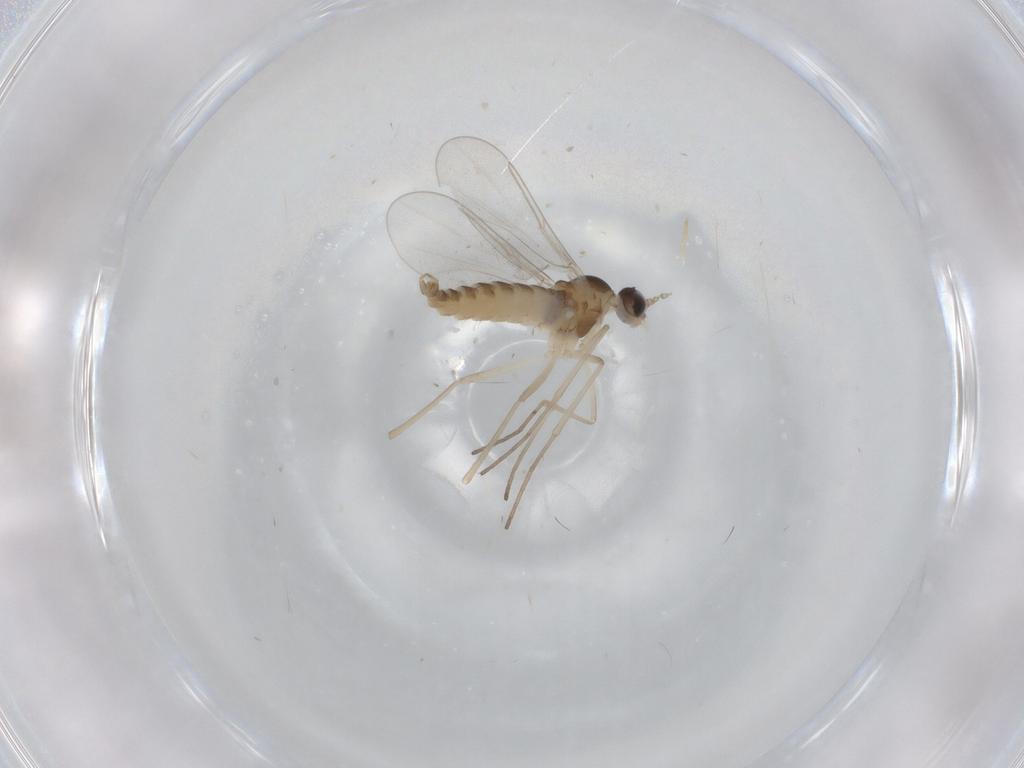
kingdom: Animalia
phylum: Arthropoda
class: Insecta
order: Diptera
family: Cecidomyiidae
